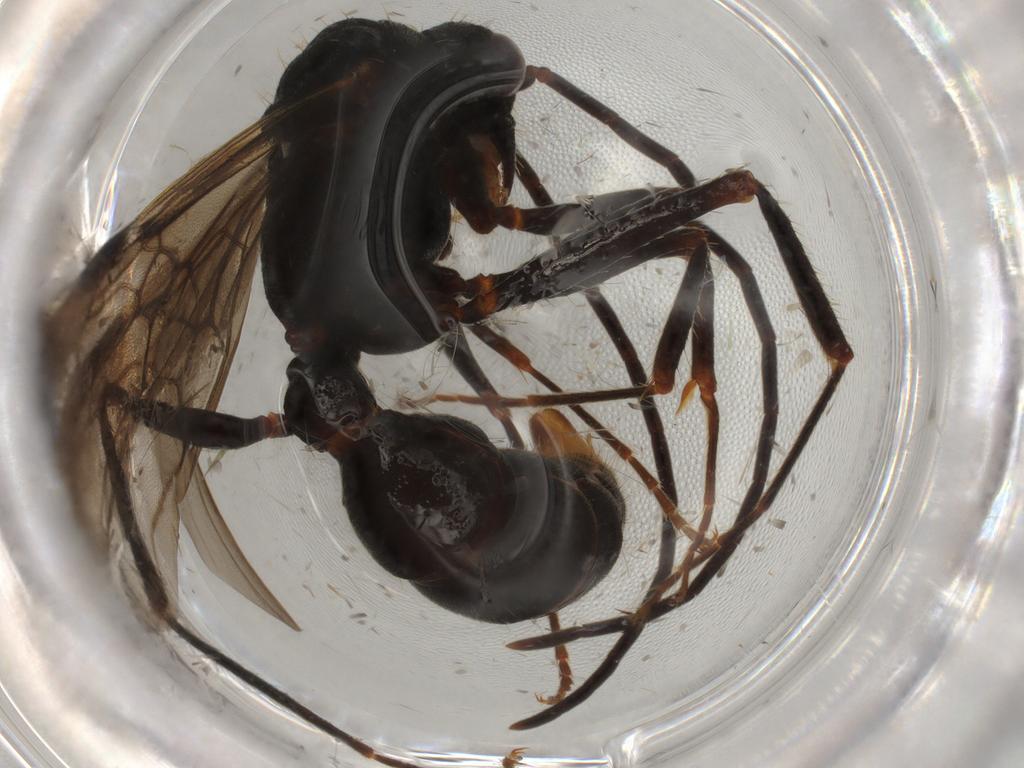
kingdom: Animalia
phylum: Arthropoda
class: Insecta
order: Hymenoptera
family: Formicidae
